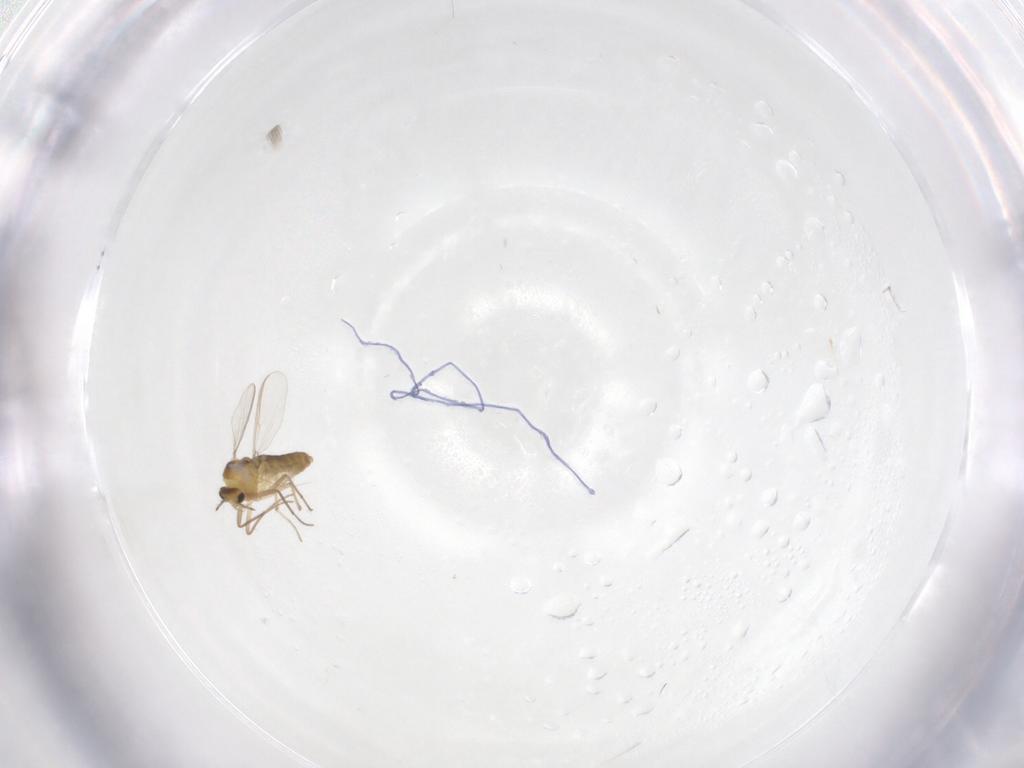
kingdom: Animalia
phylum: Arthropoda
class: Insecta
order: Diptera
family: Chironomidae
